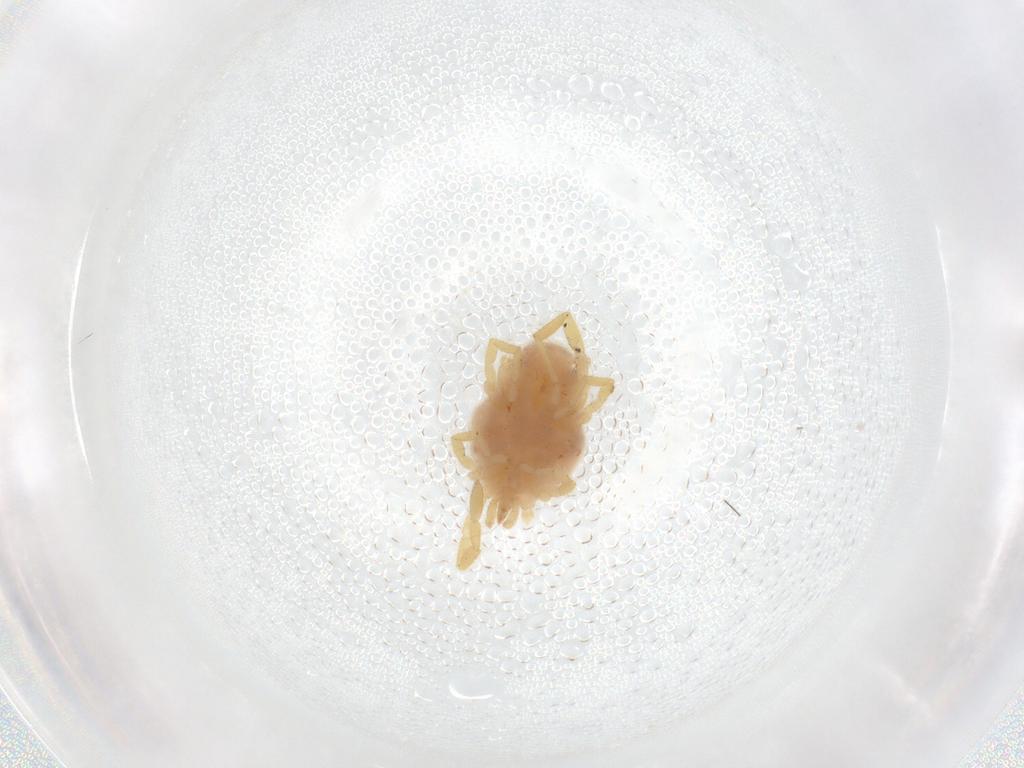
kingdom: Animalia
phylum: Arthropoda
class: Arachnida
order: Trombidiformes
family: Erythraeidae
